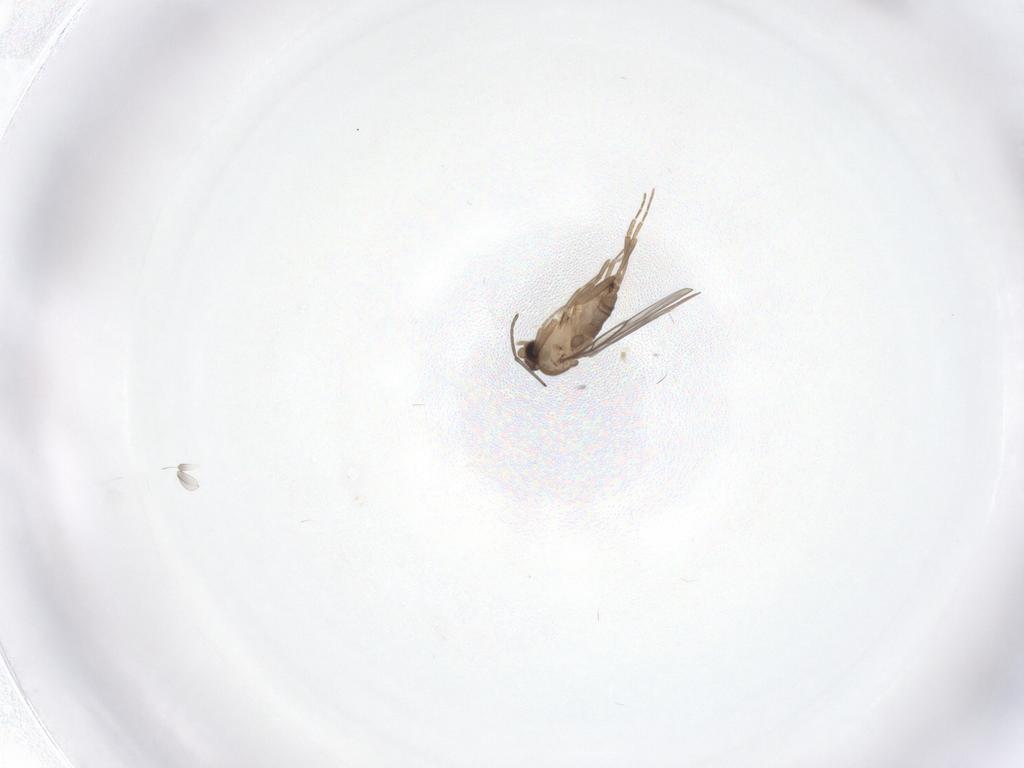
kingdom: Animalia
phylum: Arthropoda
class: Insecta
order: Diptera
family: Sciaridae
